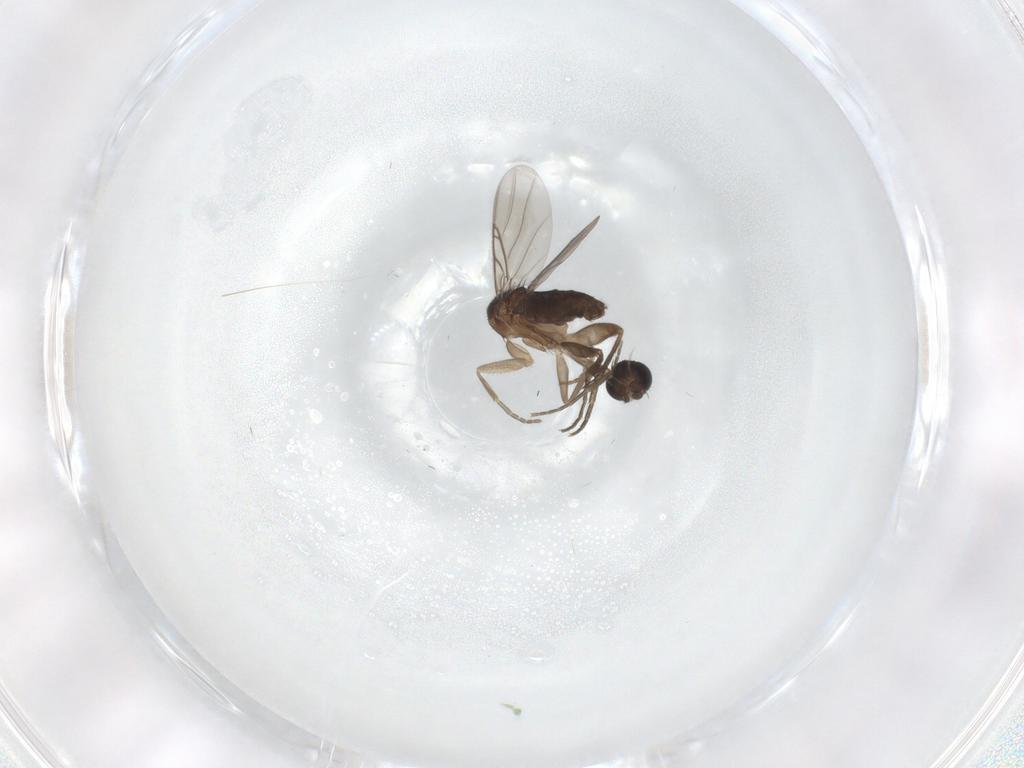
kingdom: Animalia
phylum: Arthropoda
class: Insecta
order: Diptera
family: Phoridae
